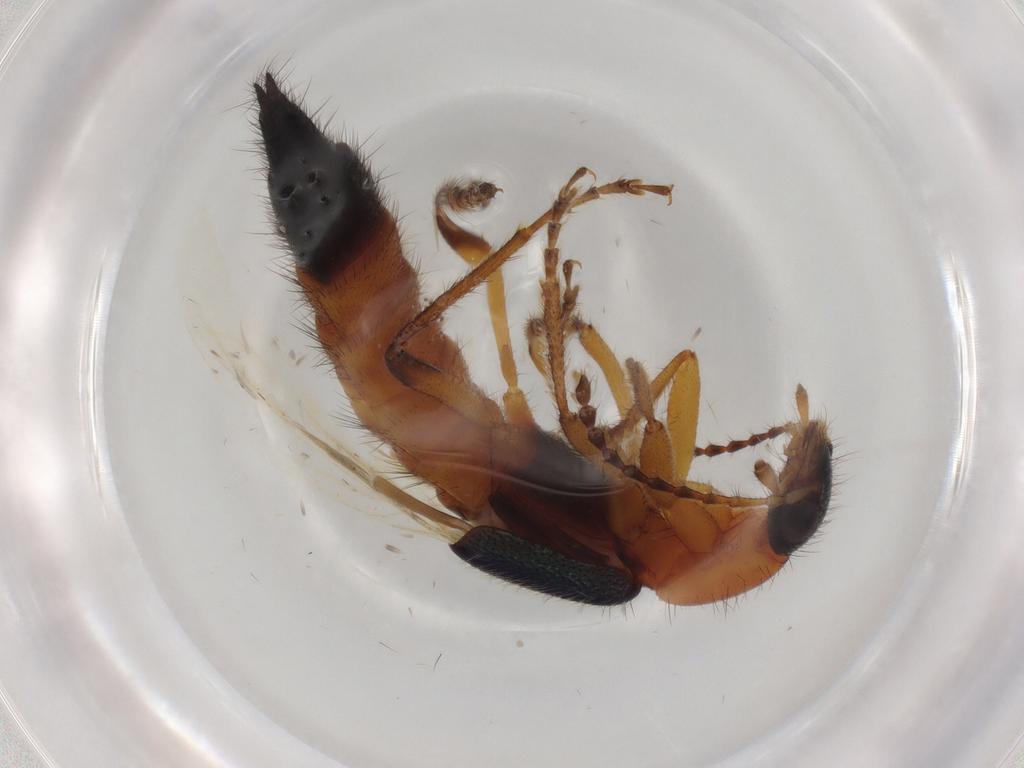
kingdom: Animalia
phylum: Arthropoda
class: Insecta
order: Coleoptera
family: Staphylinidae
